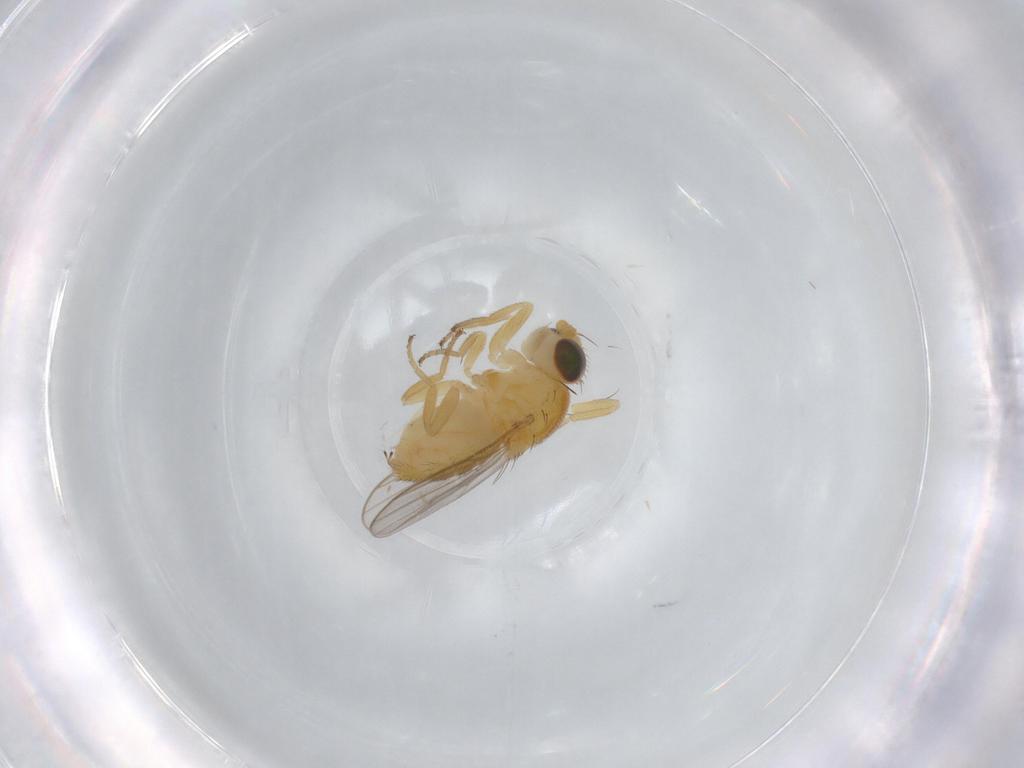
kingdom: Animalia
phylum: Arthropoda
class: Insecta
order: Diptera
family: Chloropidae
